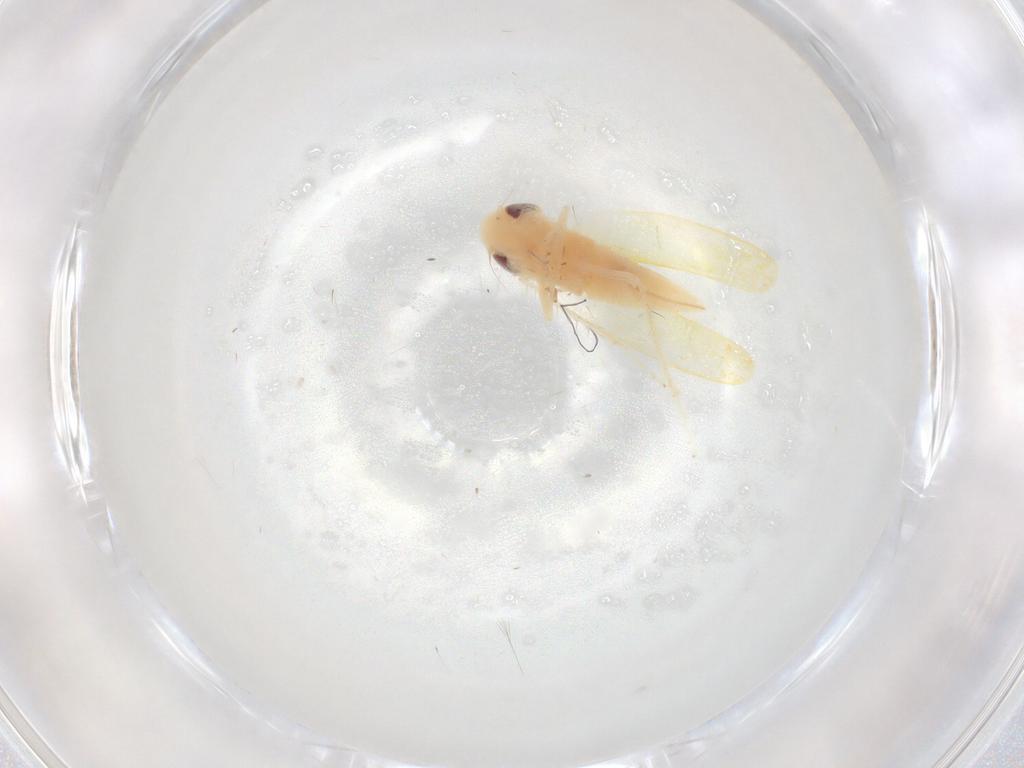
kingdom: Animalia
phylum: Arthropoda
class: Insecta
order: Hemiptera
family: Cicadellidae
